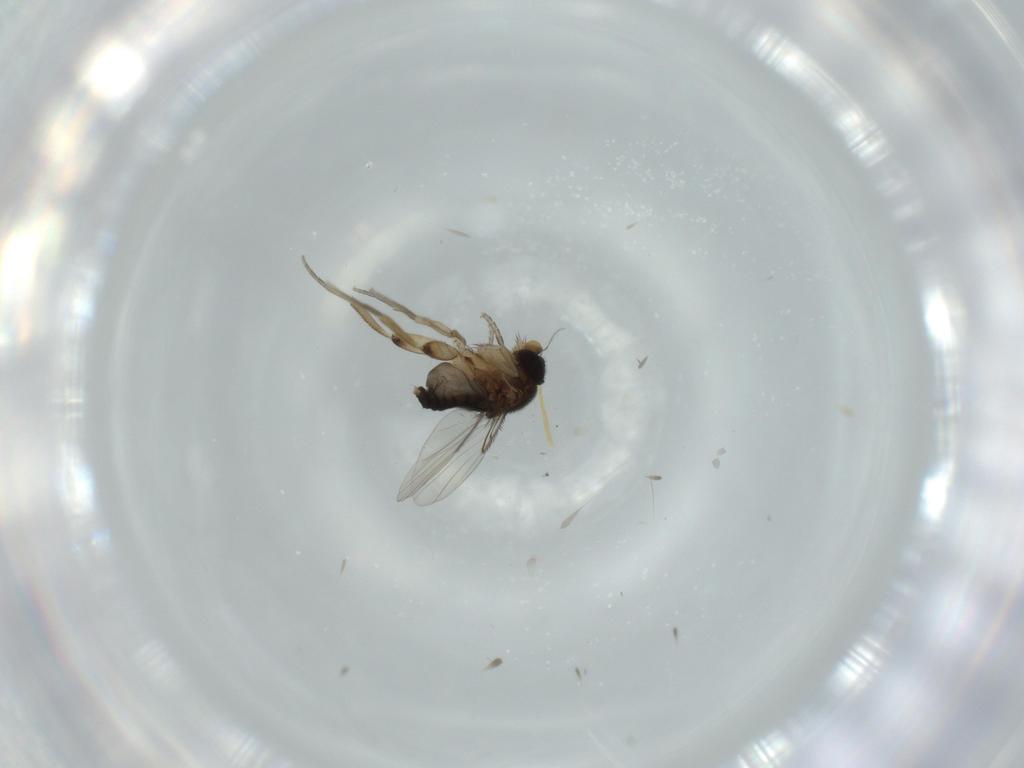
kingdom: Animalia
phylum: Arthropoda
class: Insecta
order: Diptera
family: Phoridae
